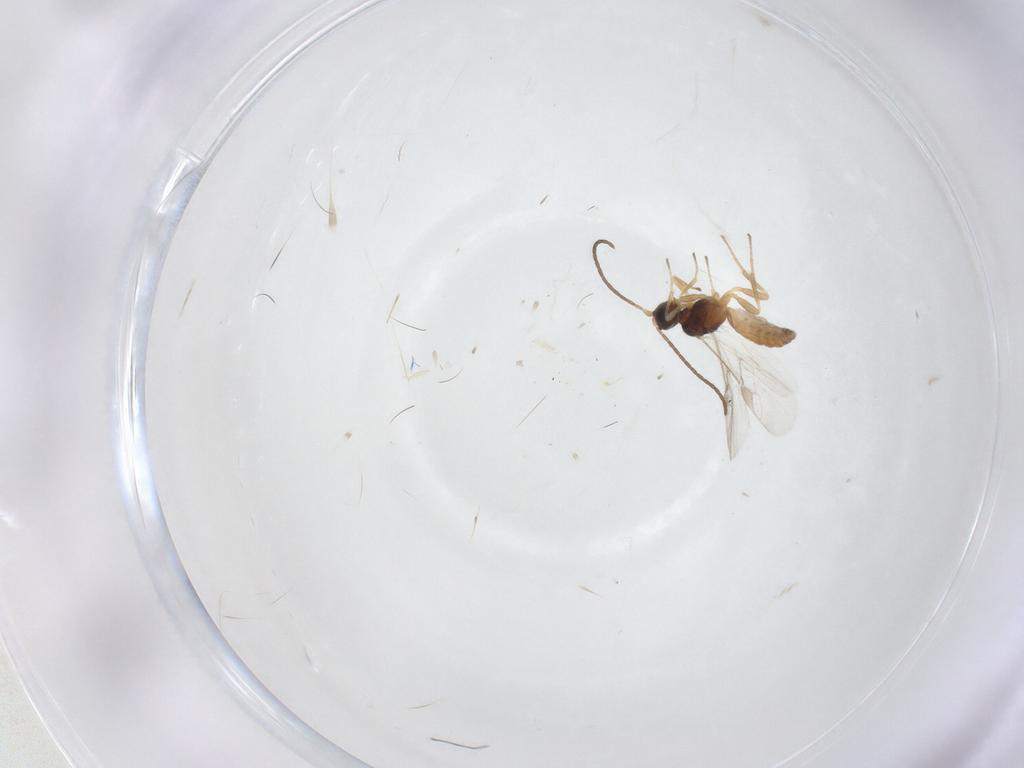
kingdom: Animalia
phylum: Arthropoda
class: Insecta
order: Hymenoptera
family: Braconidae
